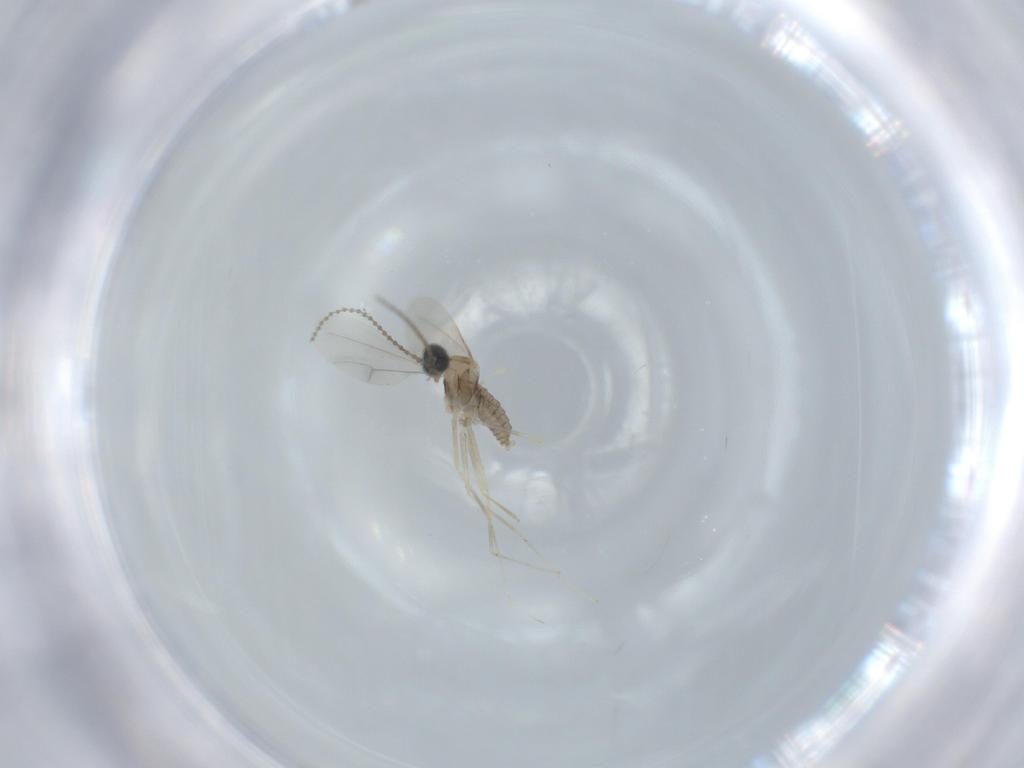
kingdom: Animalia
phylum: Arthropoda
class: Insecta
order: Diptera
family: Cecidomyiidae
